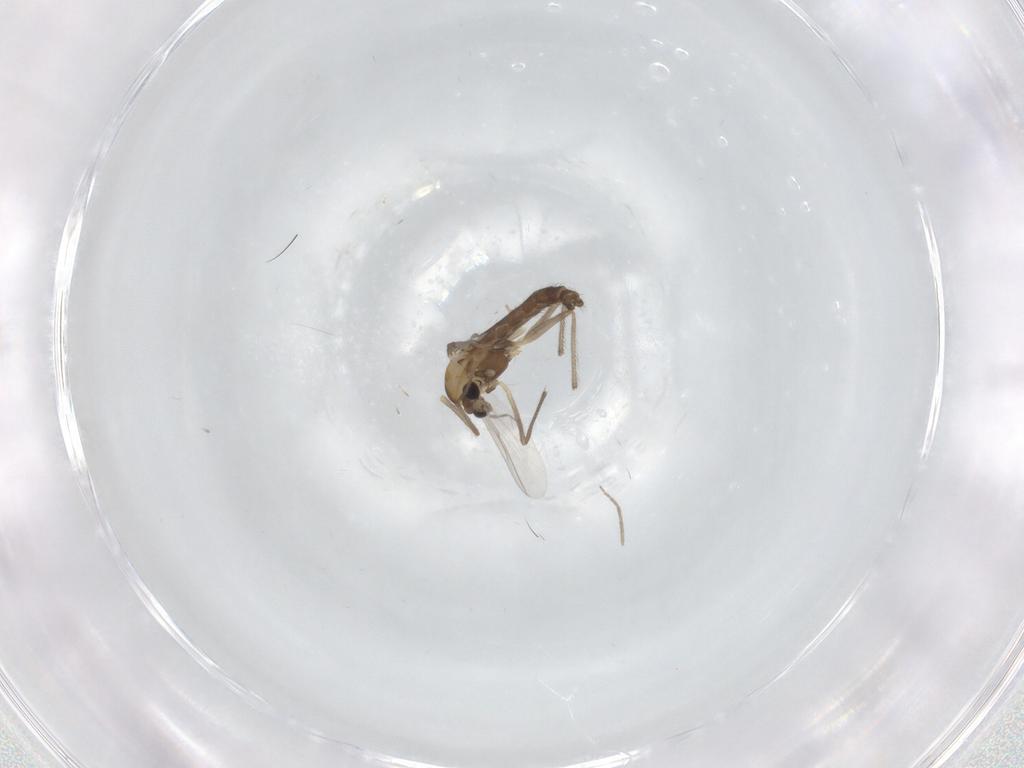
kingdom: Animalia
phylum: Arthropoda
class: Insecta
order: Diptera
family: Chironomidae
